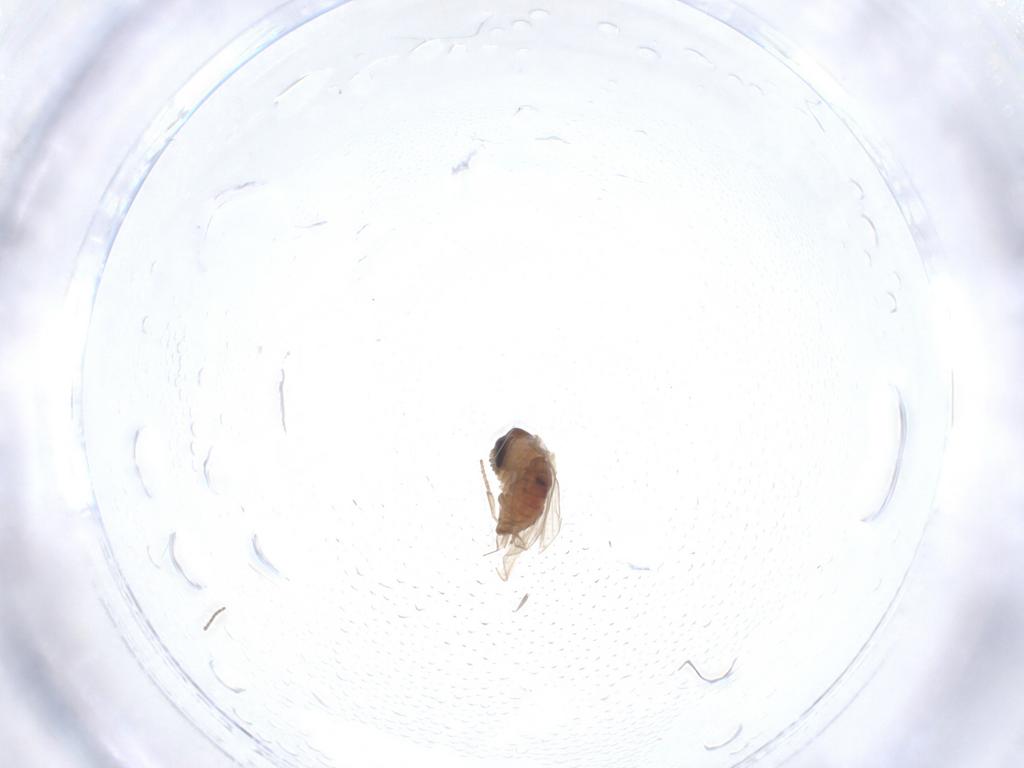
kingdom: Animalia
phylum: Arthropoda
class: Insecta
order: Diptera
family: Psychodidae
